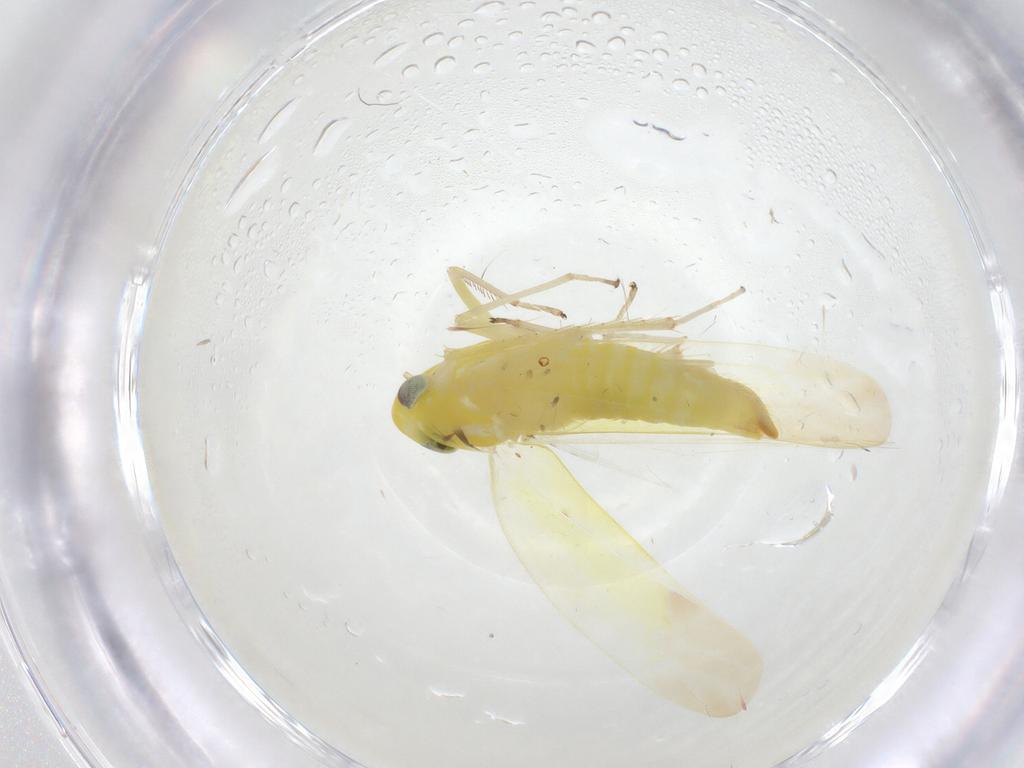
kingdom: Animalia
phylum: Arthropoda
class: Insecta
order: Hemiptera
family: Cicadellidae
